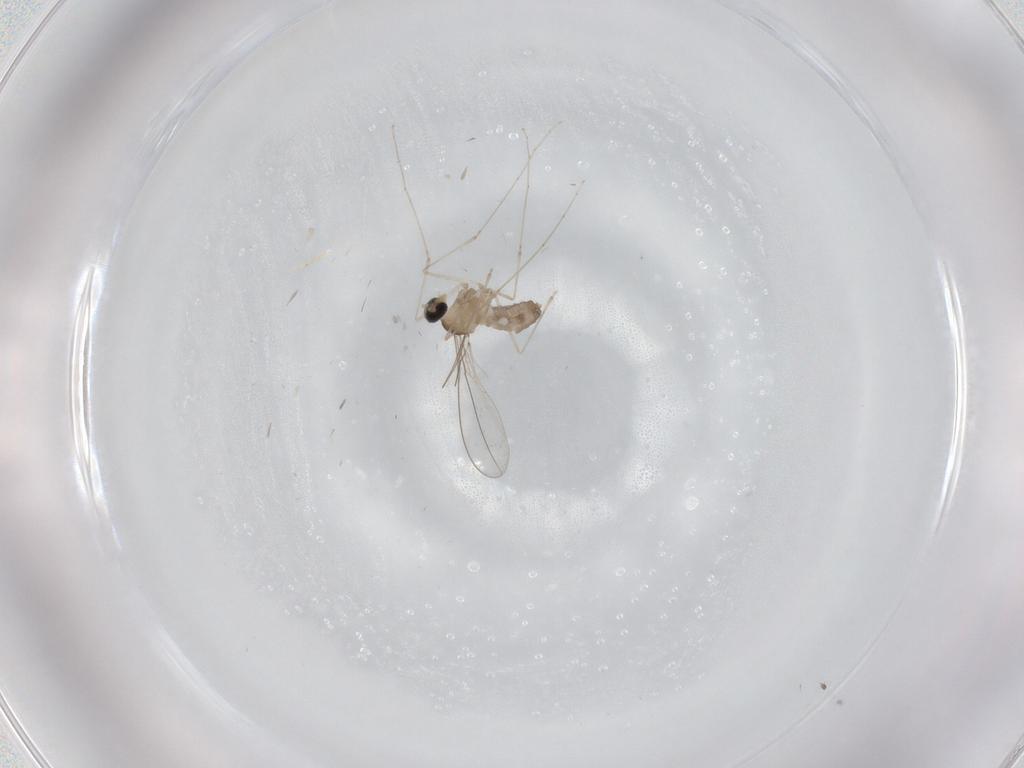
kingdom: Animalia
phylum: Arthropoda
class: Insecta
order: Diptera
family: Cecidomyiidae
